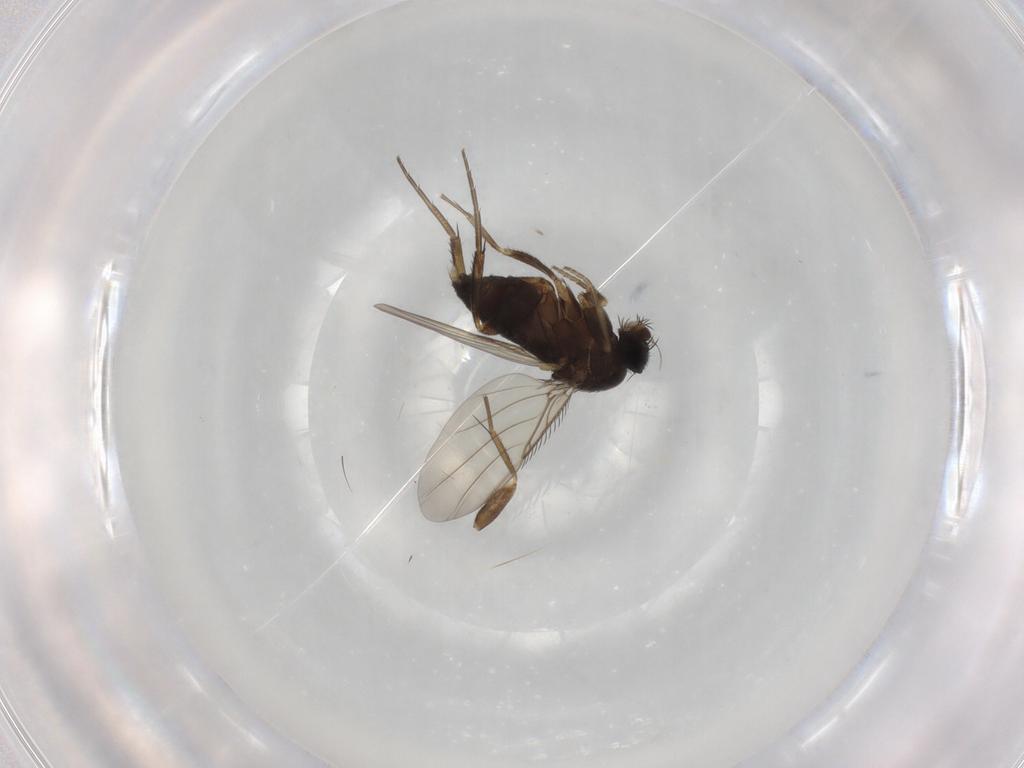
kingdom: Animalia
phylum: Arthropoda
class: Insecta
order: Diptera
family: Phoridae
